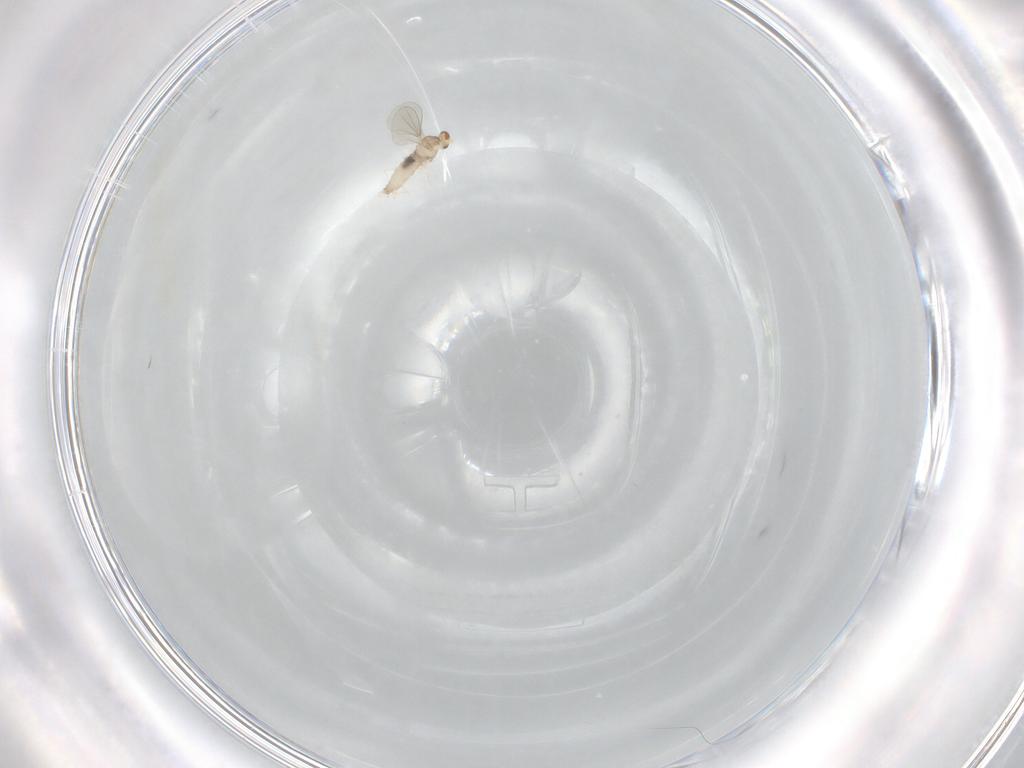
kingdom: Animalia
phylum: Arthropoda
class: Insecta
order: Diptera
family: Cecidomyiidae
